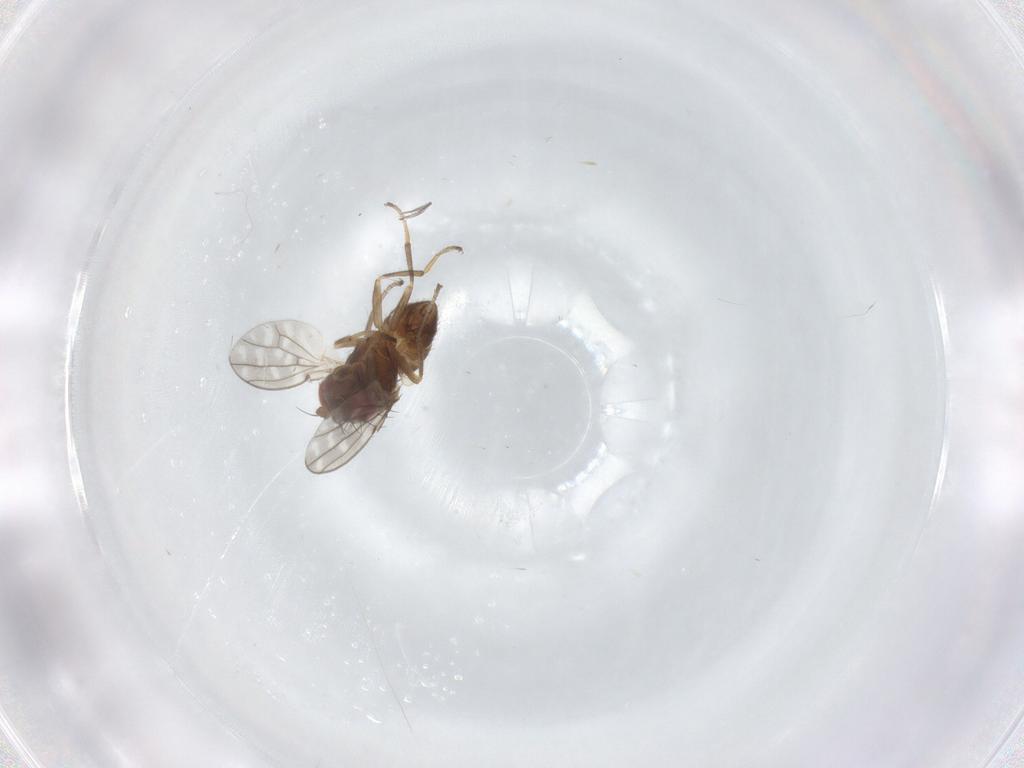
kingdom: Animalia
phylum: Arthropoda
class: Insecta
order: Diptera
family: Ephydridae
